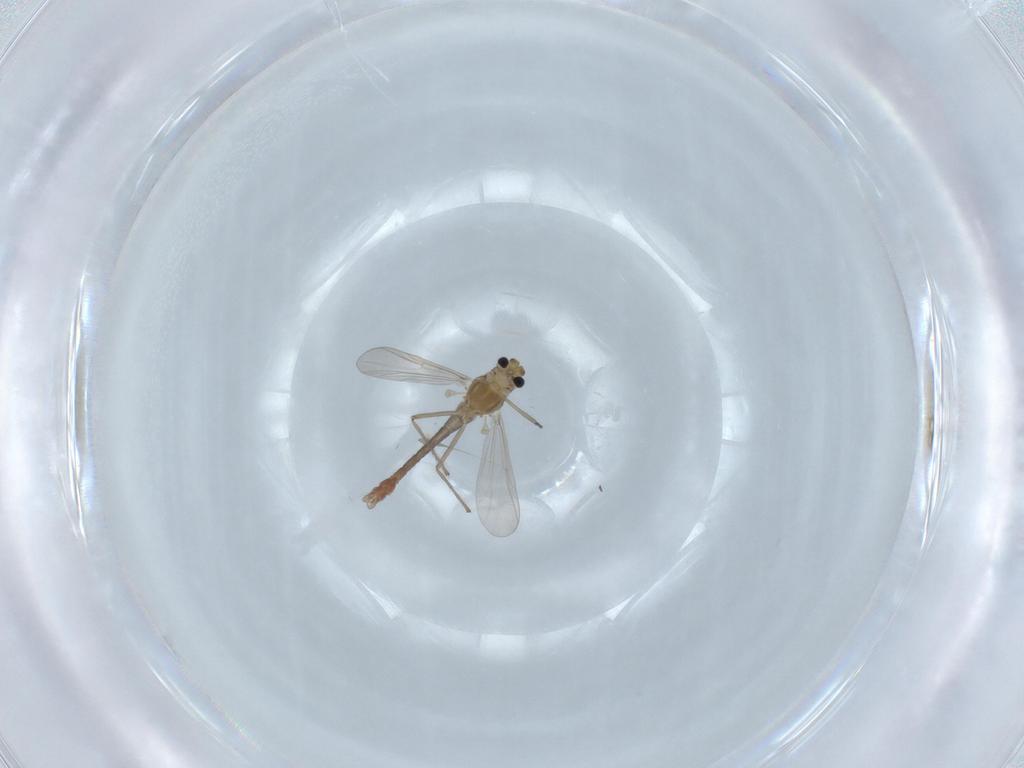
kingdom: Animalia
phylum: Arthropoda
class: Insecta
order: Diptera
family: Chironomidae
